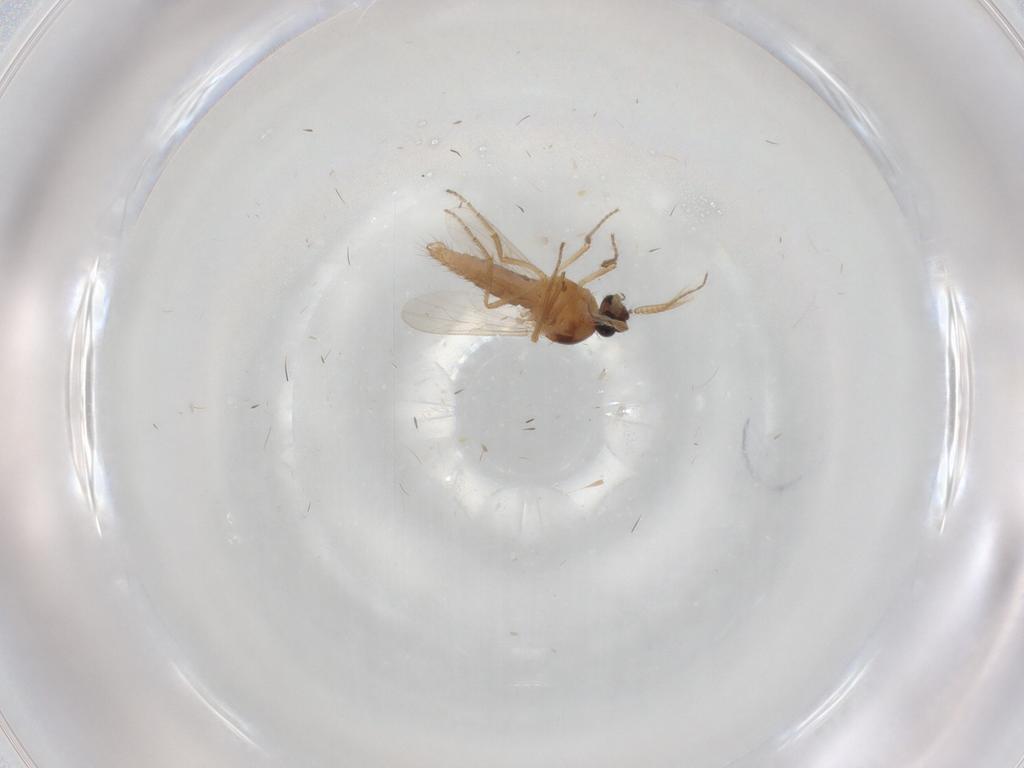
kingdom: Animalia
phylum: Arthropoda
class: Insecta
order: Diptera
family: Ceratopogonidae
